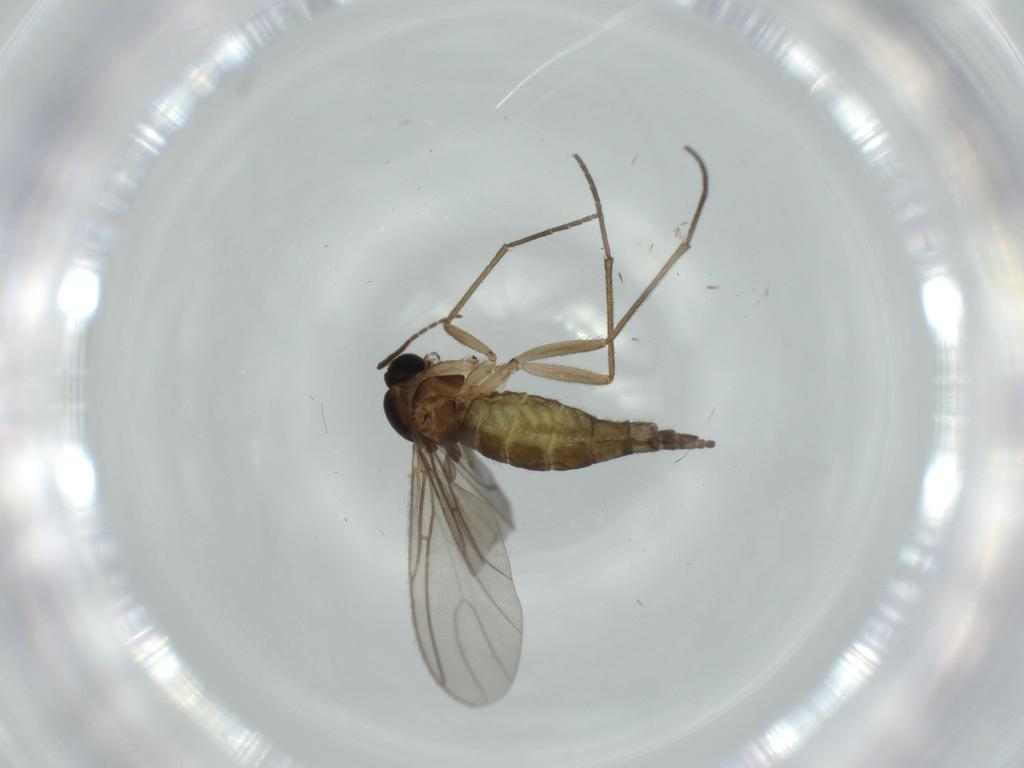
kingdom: Animalia
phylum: Arthropoda
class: Insecta
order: Diptera
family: Sciaridae
